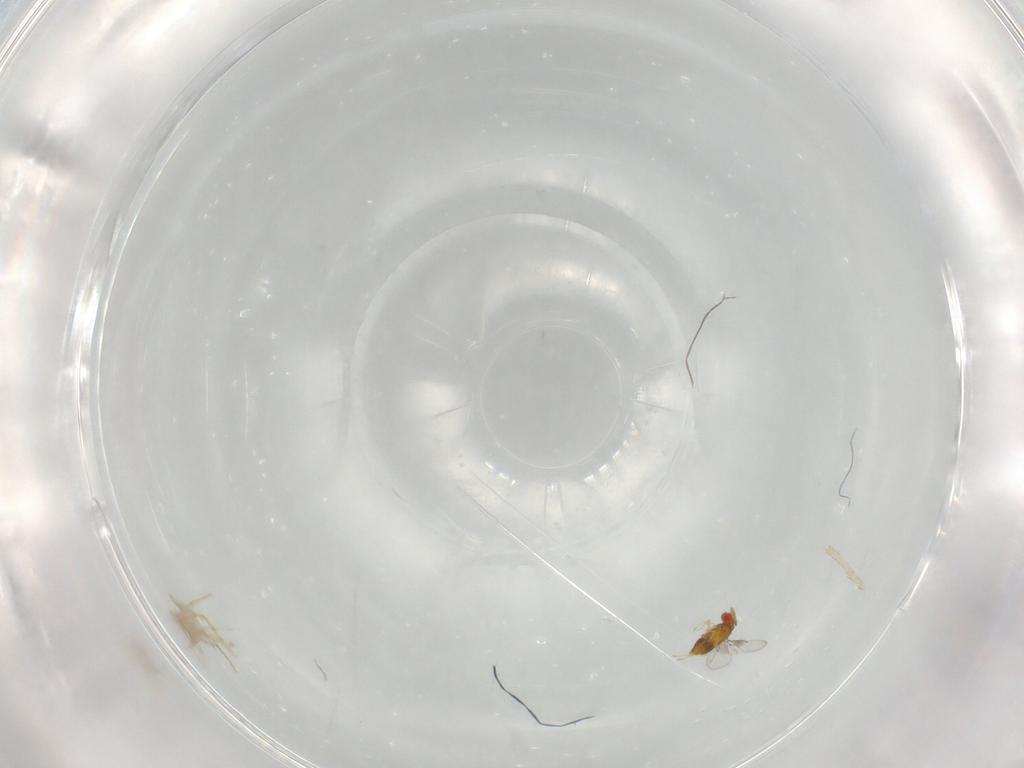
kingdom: Animalia
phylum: Arthropoda
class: Insecta
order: Hymenoptera
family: Trichogrammatidae
